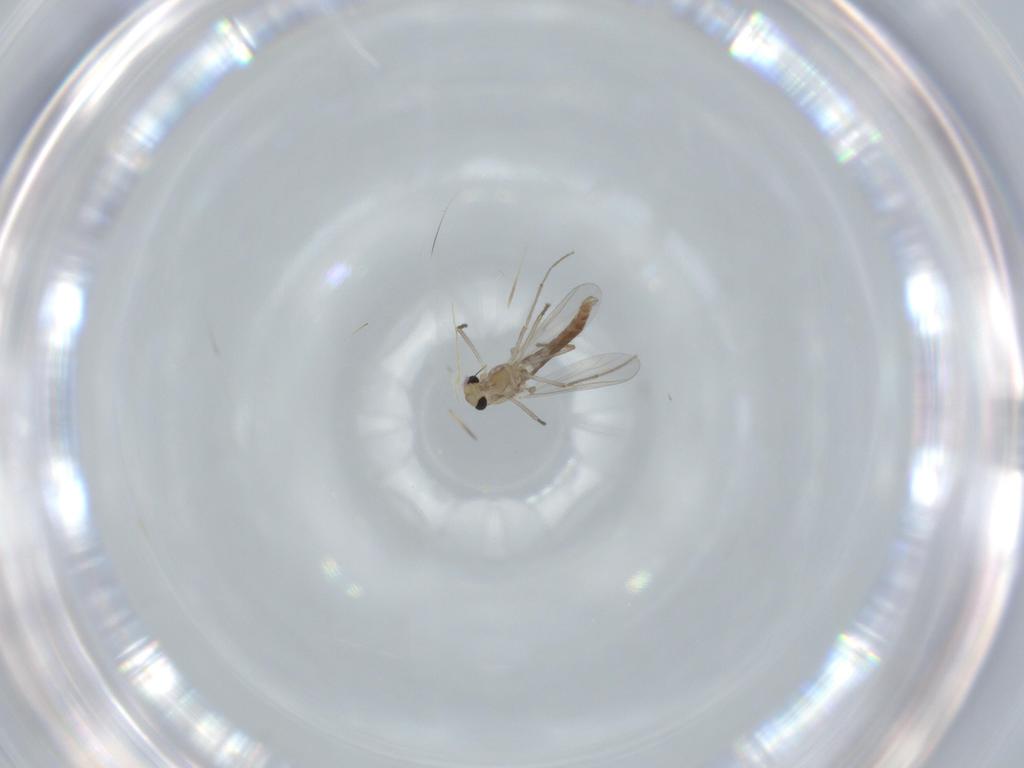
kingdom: Animalia
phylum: Arthropoda
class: Insecta
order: Diptera
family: Chironomidae
